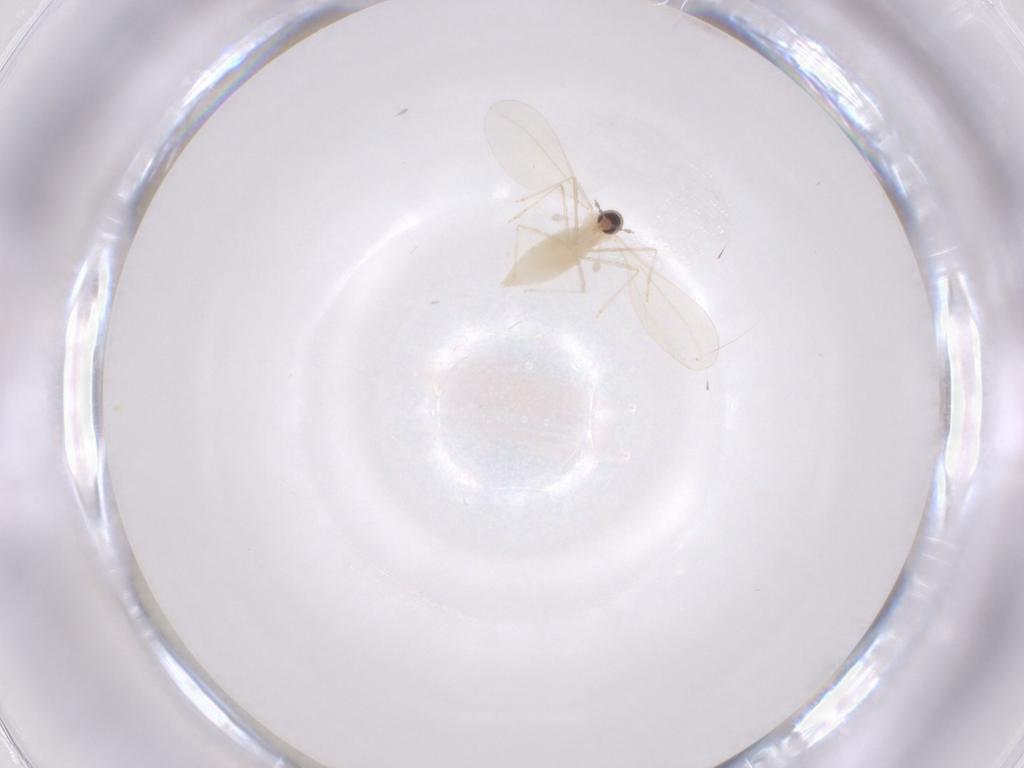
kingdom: Animalia
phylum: Arthropoda
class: Insecta
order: Diptera
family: Cecidomyiidae
